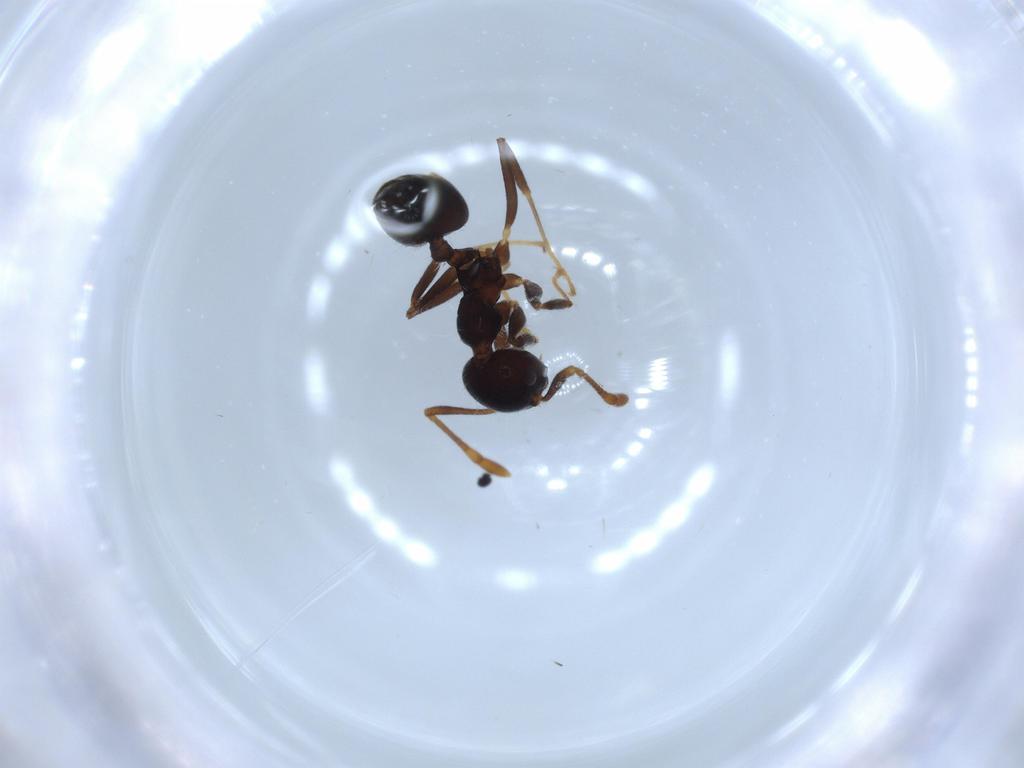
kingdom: Animalia
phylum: Arthropoda
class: Insecta
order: Hymenoptera
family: Formicidae
